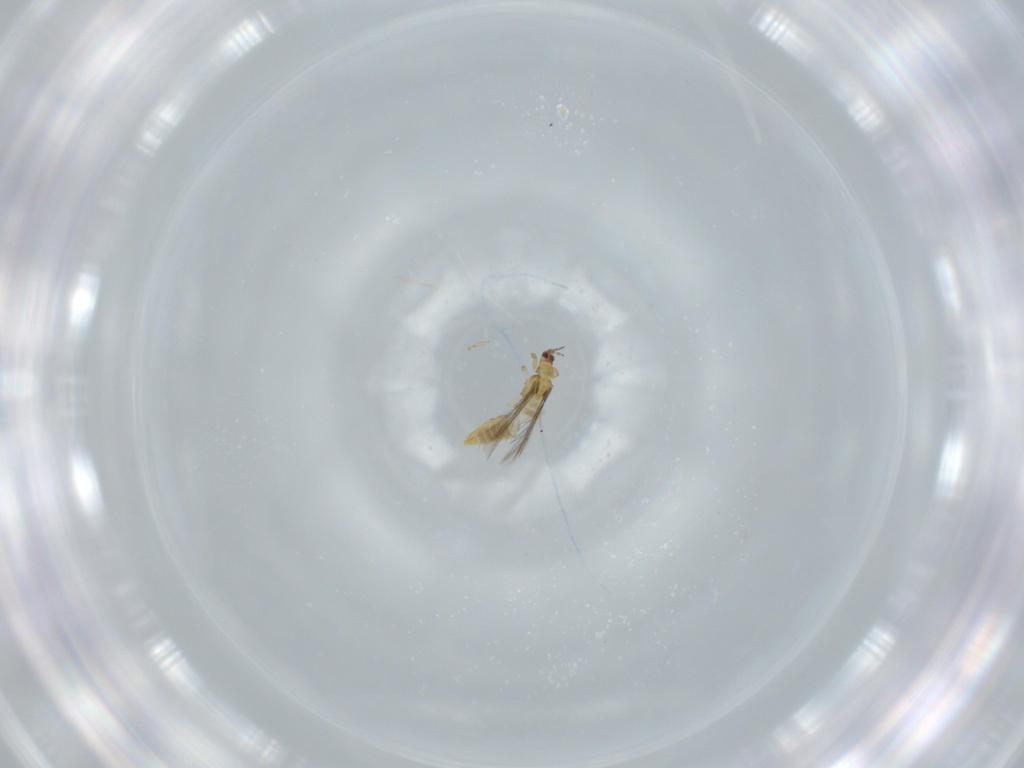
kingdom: Animalia
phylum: Arthropoda
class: Insecta
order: Thysanoptera
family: Thripidae
